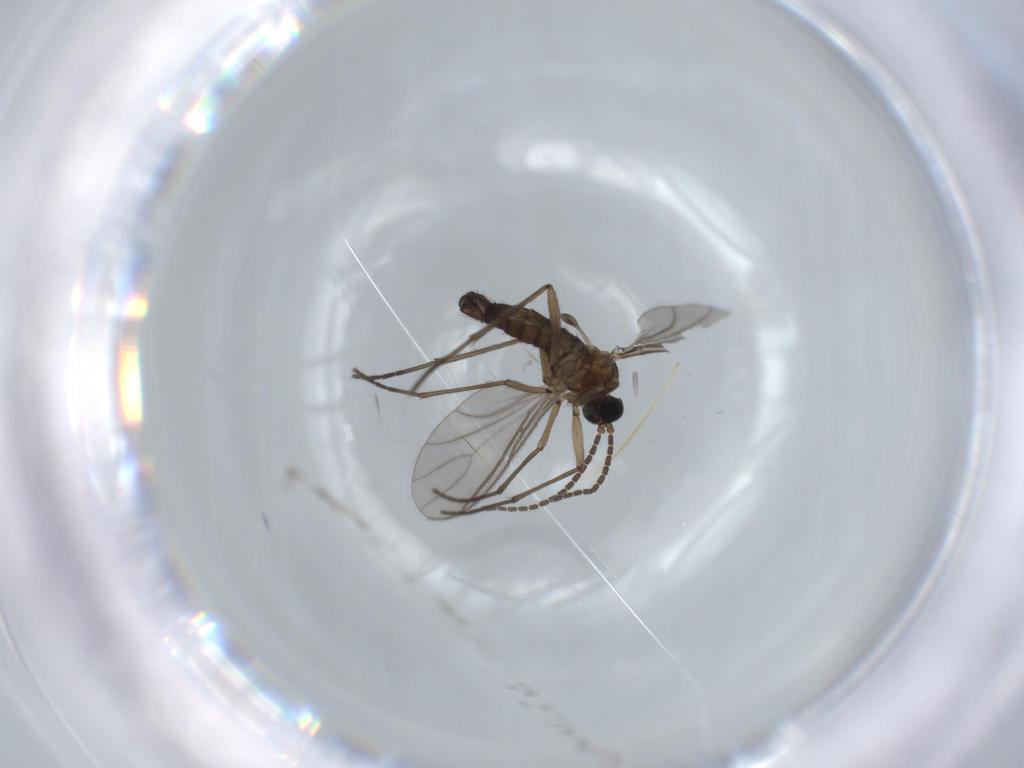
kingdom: Animalia
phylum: Arthropoda
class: Insecta
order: Diptera
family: Sciaridae
